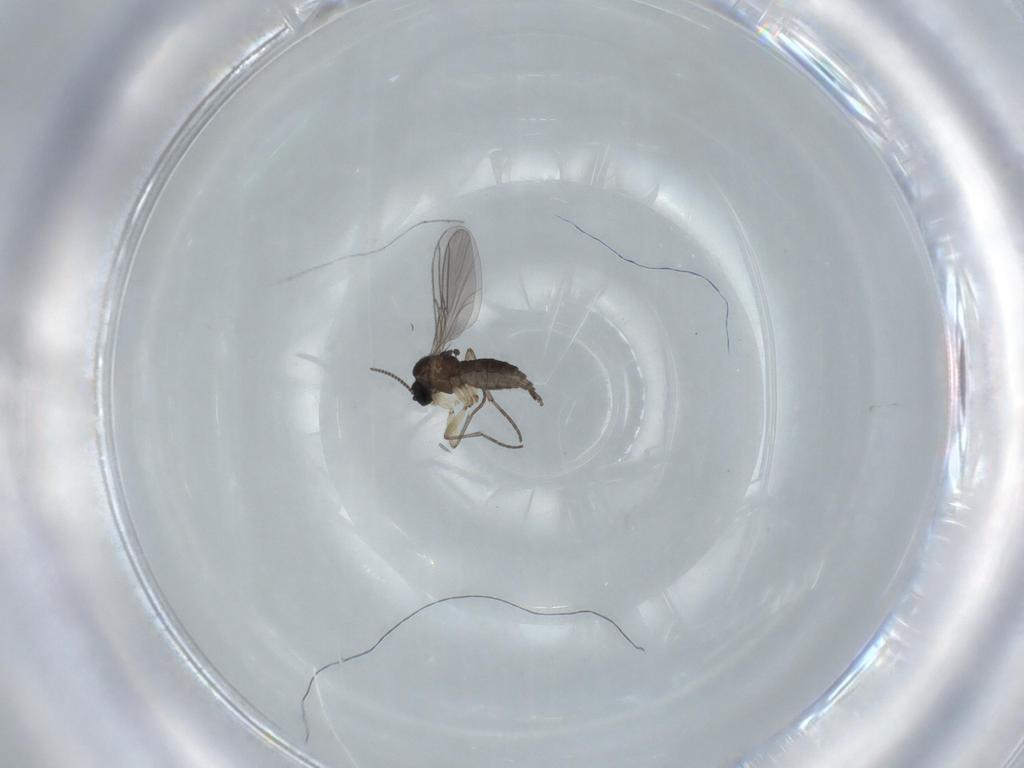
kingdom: Animalia
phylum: Arthropoda
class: Insecta
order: Diptera
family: Sciaridae
